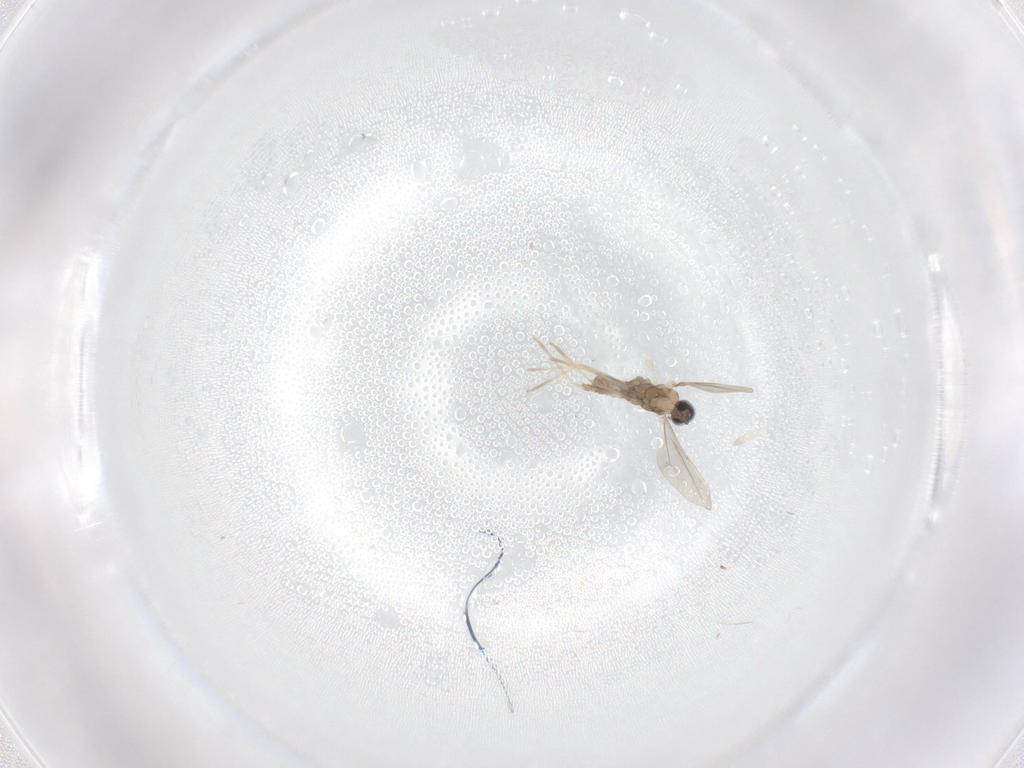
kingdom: Animalia
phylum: Arthropoda
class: Insecta
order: Diptera
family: Cecidomyiidae
